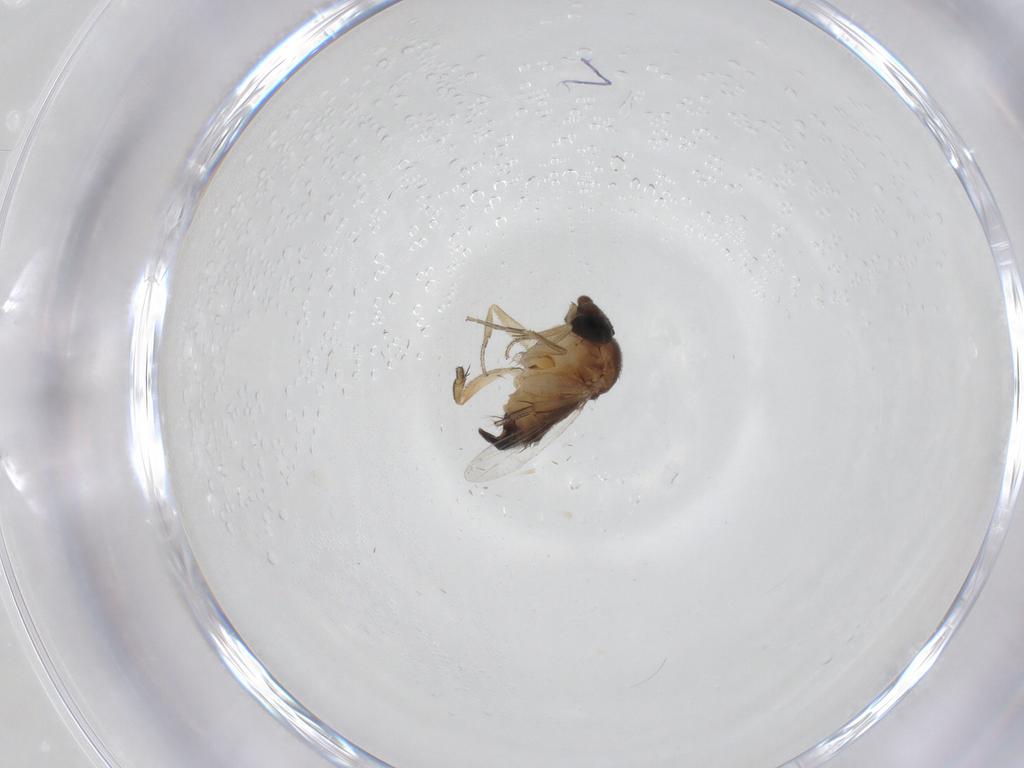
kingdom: Animalia
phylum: Arthropoda
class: Insecta
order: Diptera
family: Phoridae
